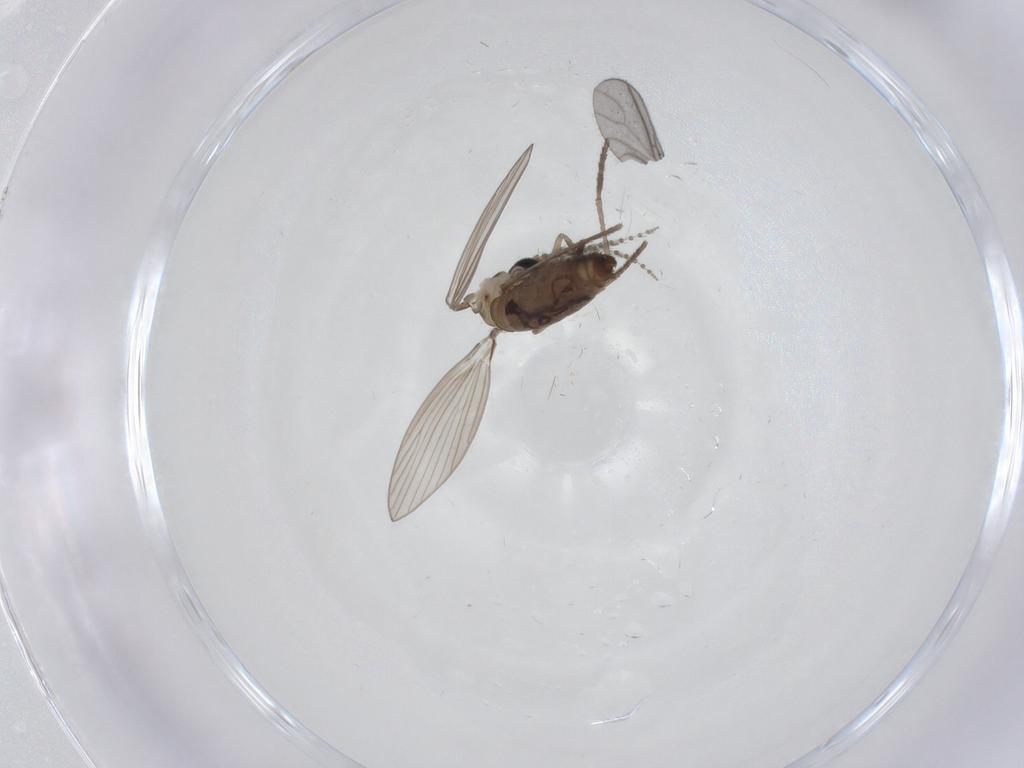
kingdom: Animalia
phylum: Arthropoda
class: Insecta
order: Diptera
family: Psychodidae
